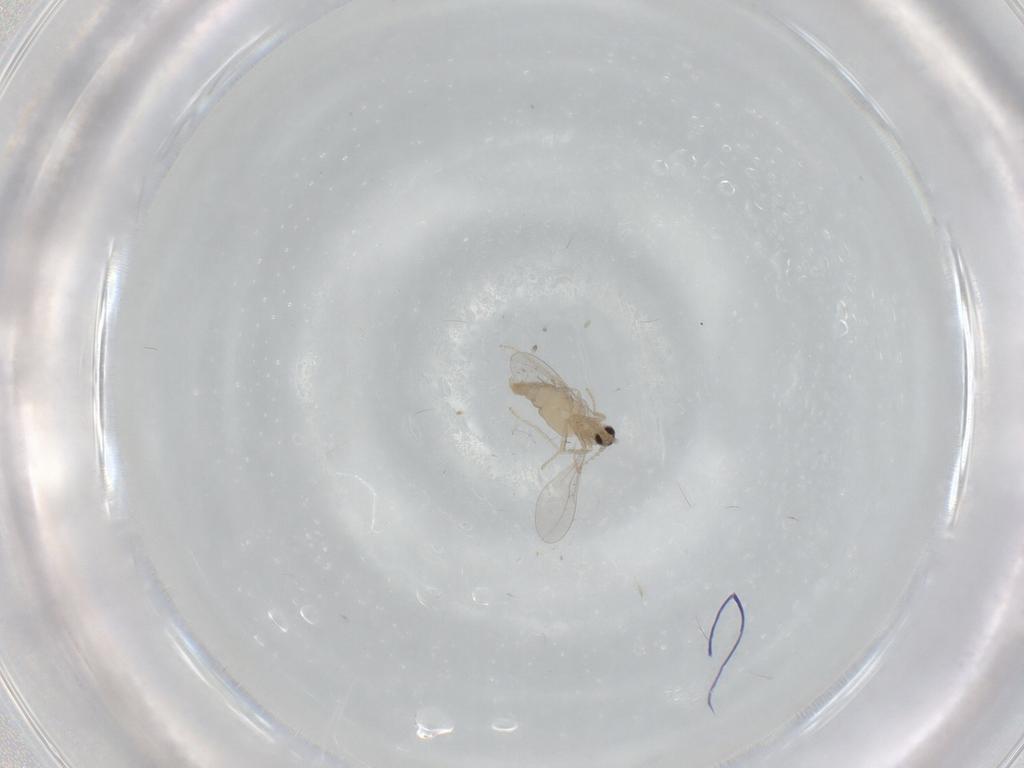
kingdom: Animalia
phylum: Arthropoda
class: Insecta
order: Diptera
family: Cecidomyiidae
